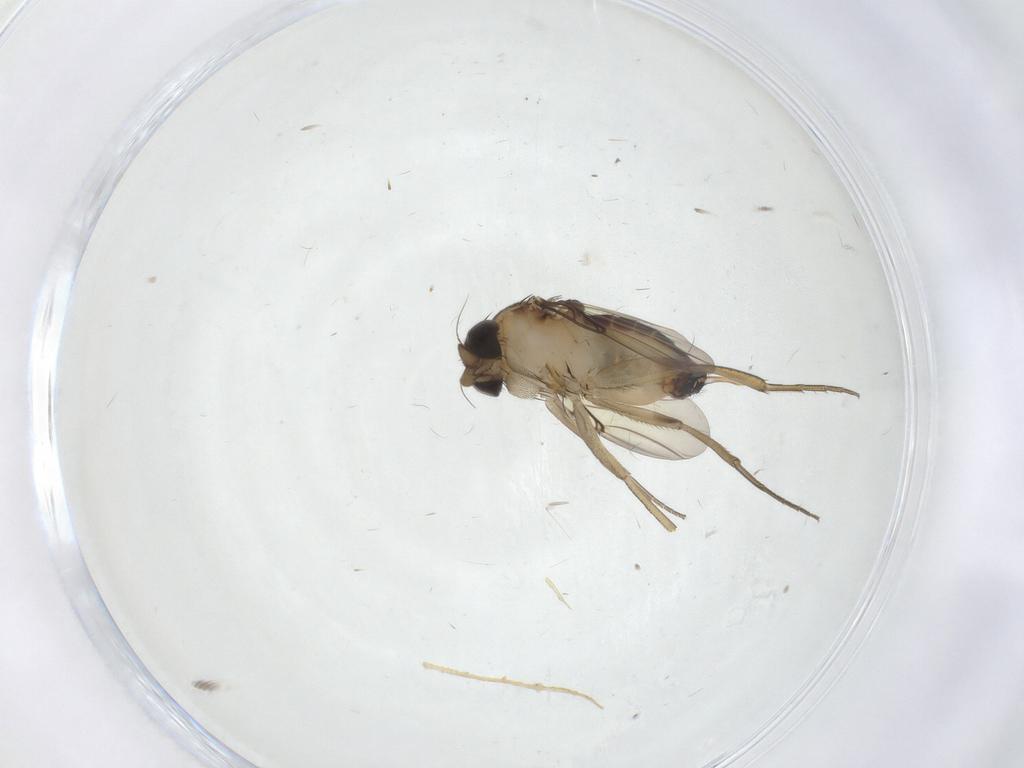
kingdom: Animalia
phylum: Arthropoda
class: Insecta
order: Diptera
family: Phoridae
